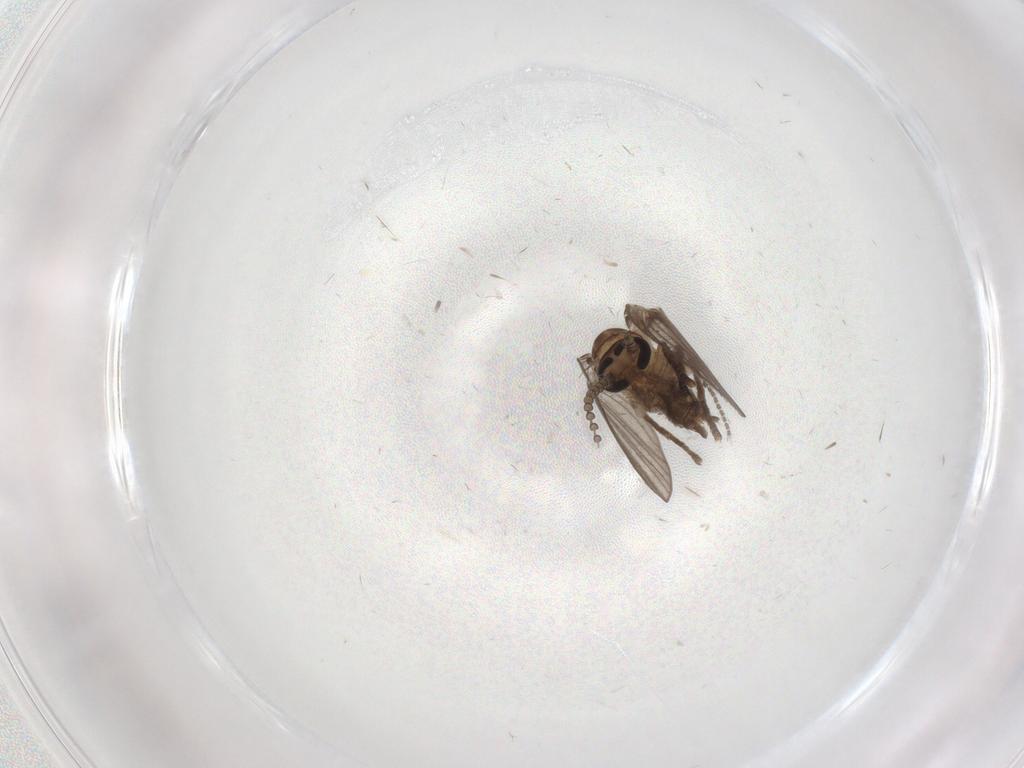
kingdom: Animalia
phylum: Arthropoda
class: Insecta
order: Diptera
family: Psychodidae
